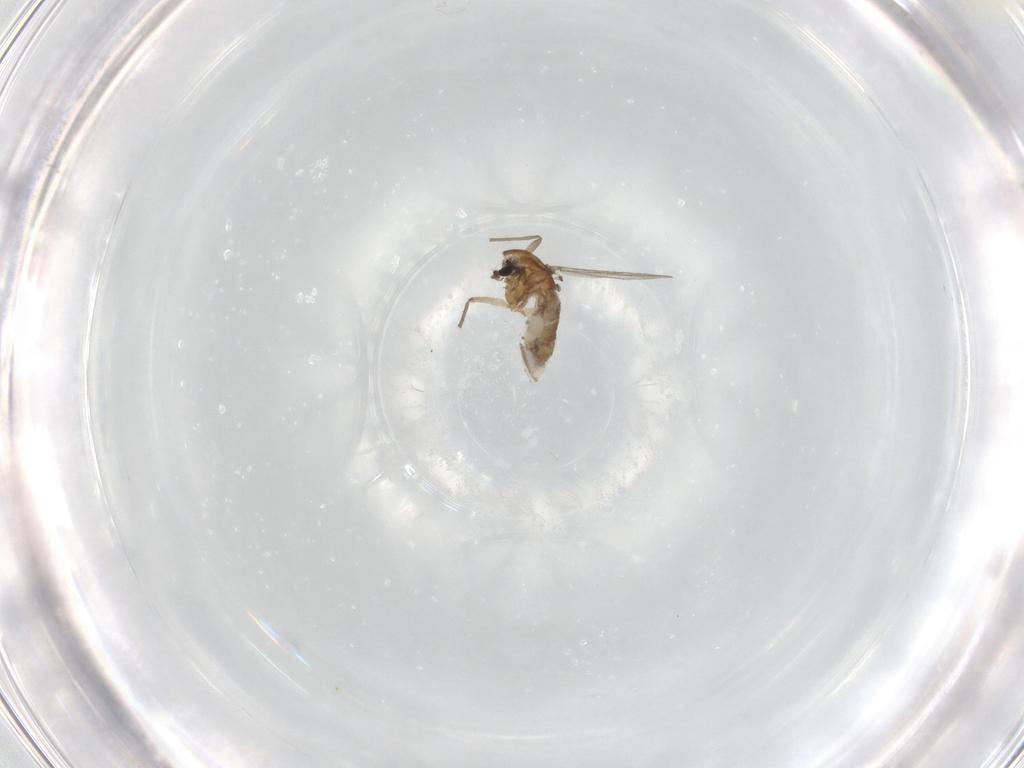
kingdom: Animalia
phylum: Arthropoda
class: Insecta
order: Diptera
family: Chironomidae
